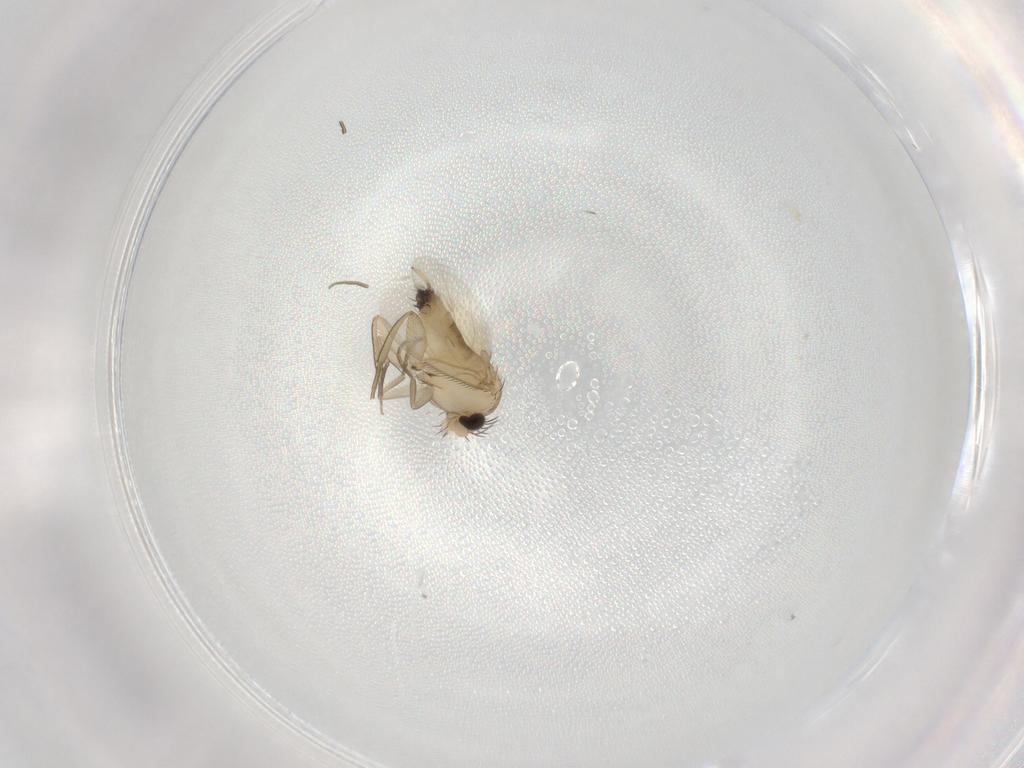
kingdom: Animalia
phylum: Arthropoda
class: Insecta
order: Diptera
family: Phoridae
